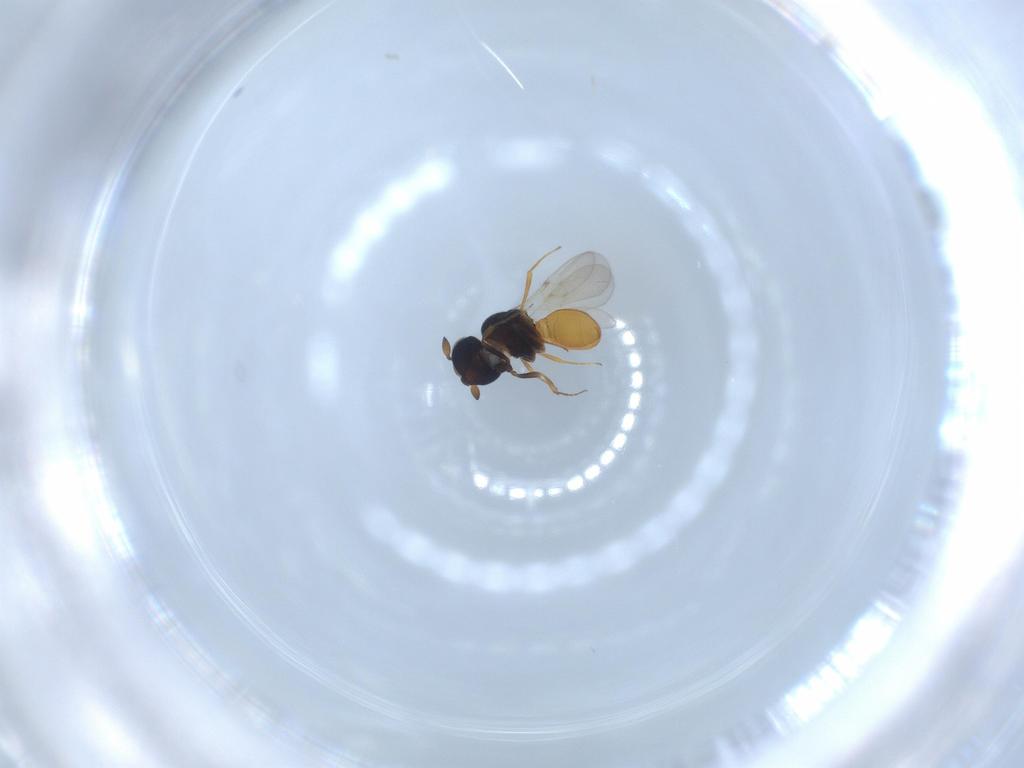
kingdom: Animalia
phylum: Arthropoda
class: Insecta
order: Hymenoptera
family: Scelionidae
